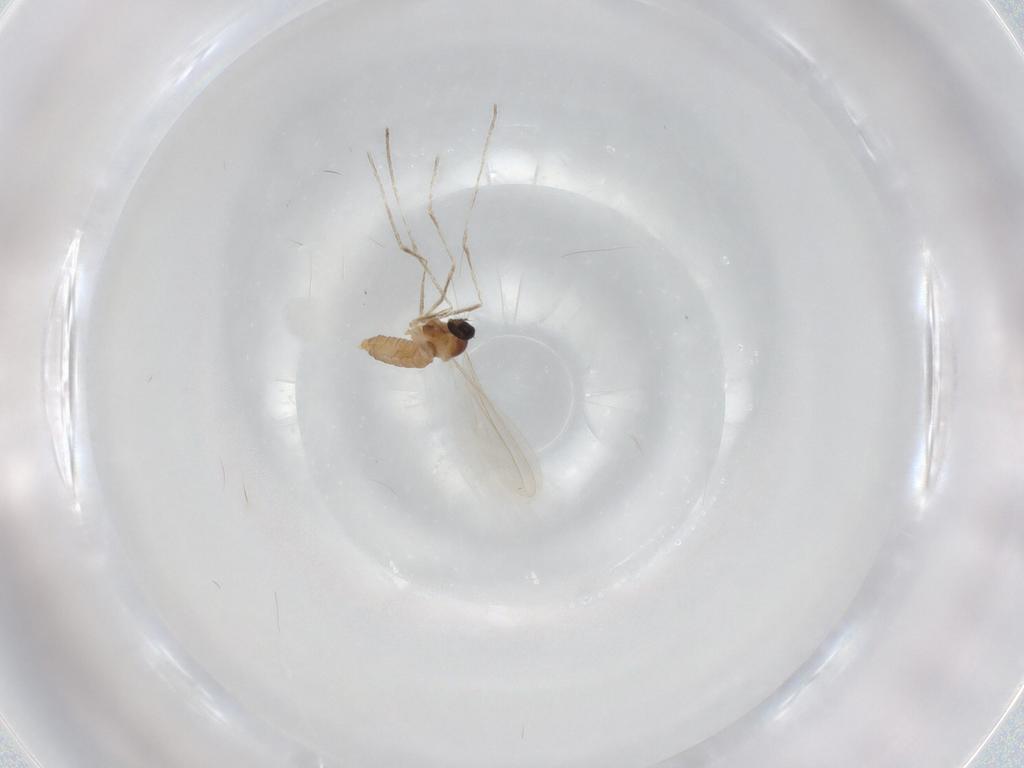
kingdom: Animalia
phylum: Arthropoda
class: Insecta
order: Diptera
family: Cecidomyiidae
